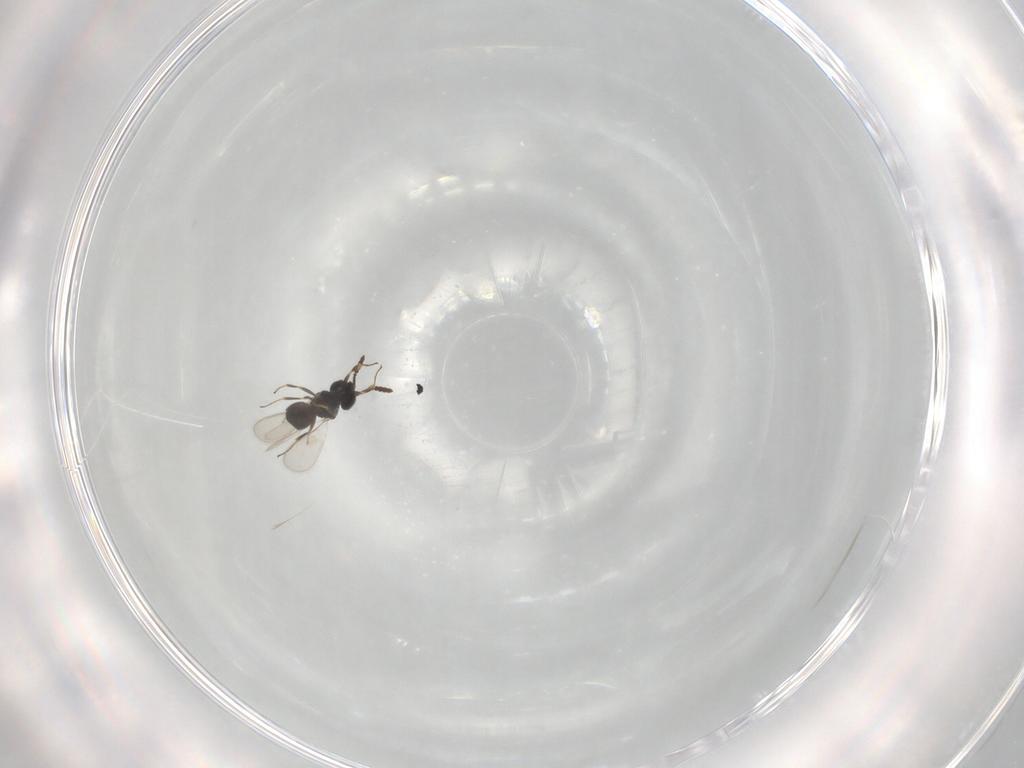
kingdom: Animalia
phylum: Arthropoda
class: Insecta
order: Hymenoptera
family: Scelionidae
